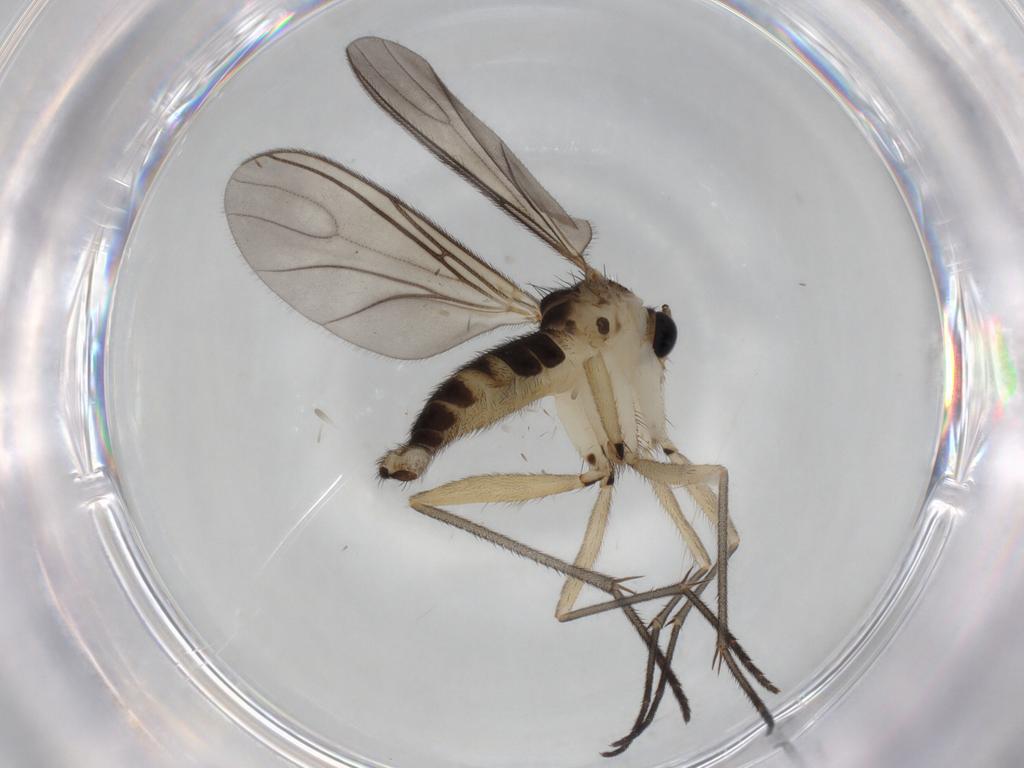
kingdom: Animalia
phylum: Arthropoda
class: Insecta
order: Diptera
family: Sciaridae
